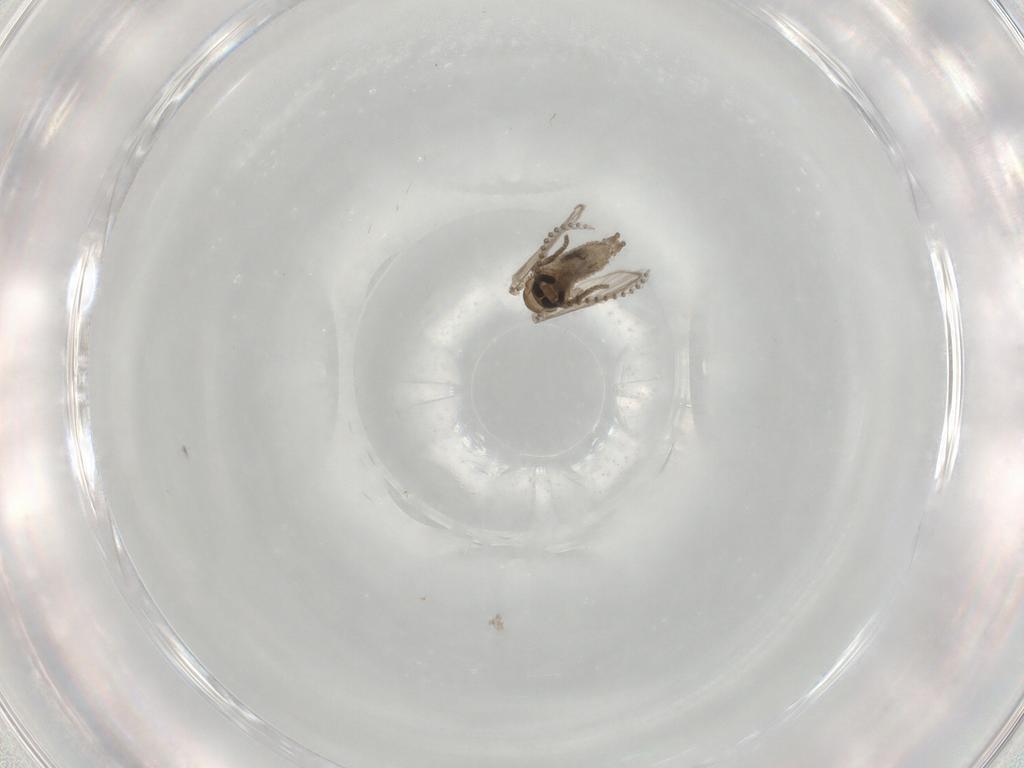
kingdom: Animalia
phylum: Arthropoda
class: Insecta
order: Diptera
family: Psychodidae
